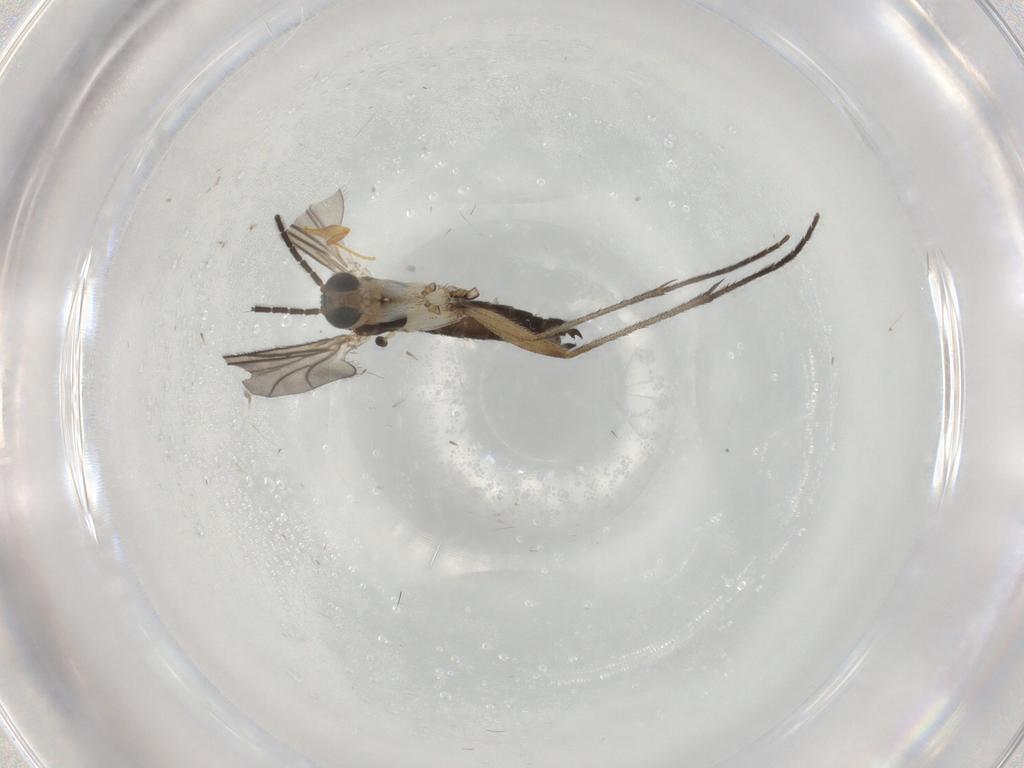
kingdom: Animalia
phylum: Arthropoda
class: Insecta
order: Diptera
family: Sciaridae
